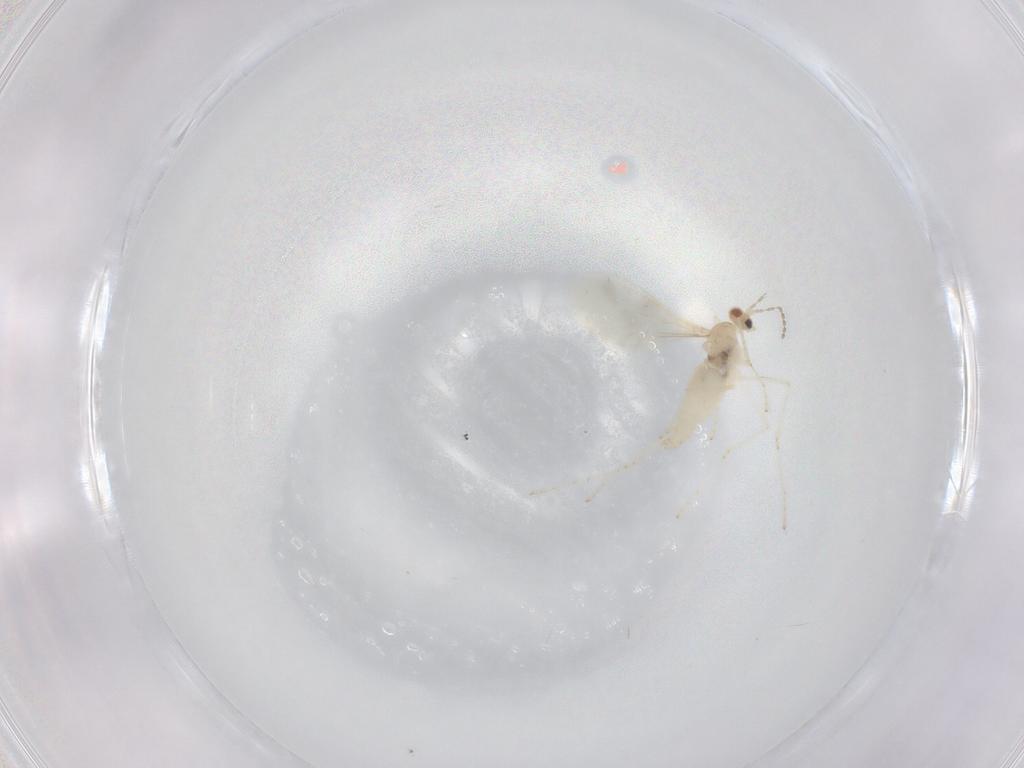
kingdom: Animalia
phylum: Arthropoda
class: Insecta
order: Diptera
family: Cecidomyiidae
